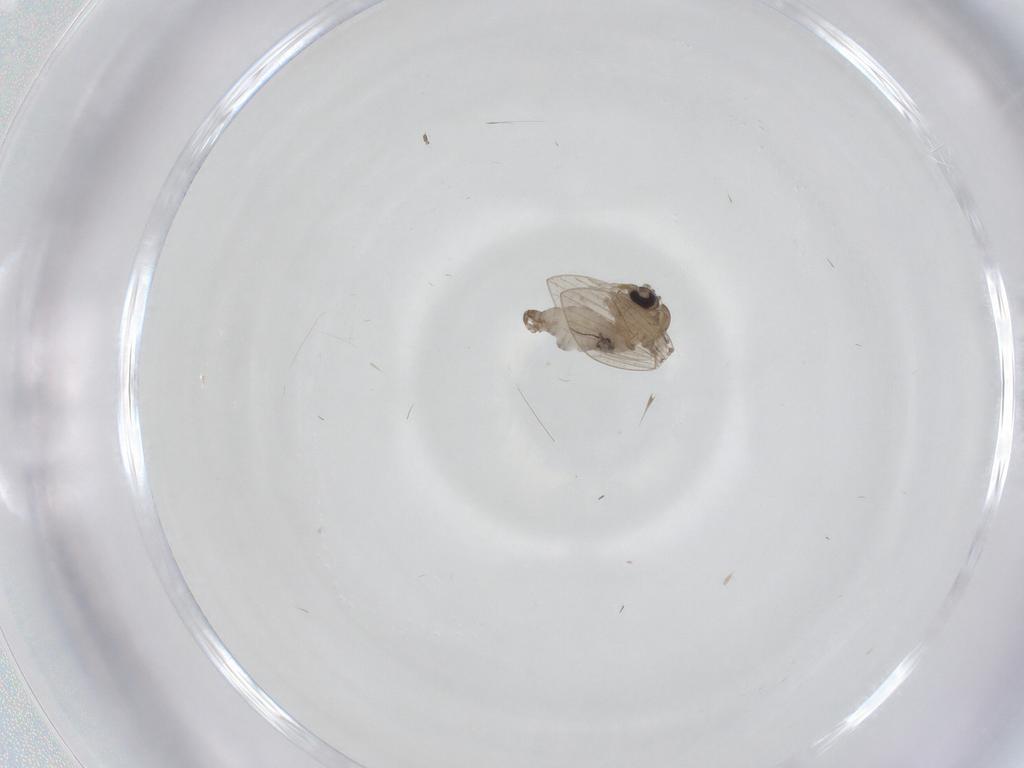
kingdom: Animalia
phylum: Arthropoda
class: Insecta
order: Diptera
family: Psychodidae
